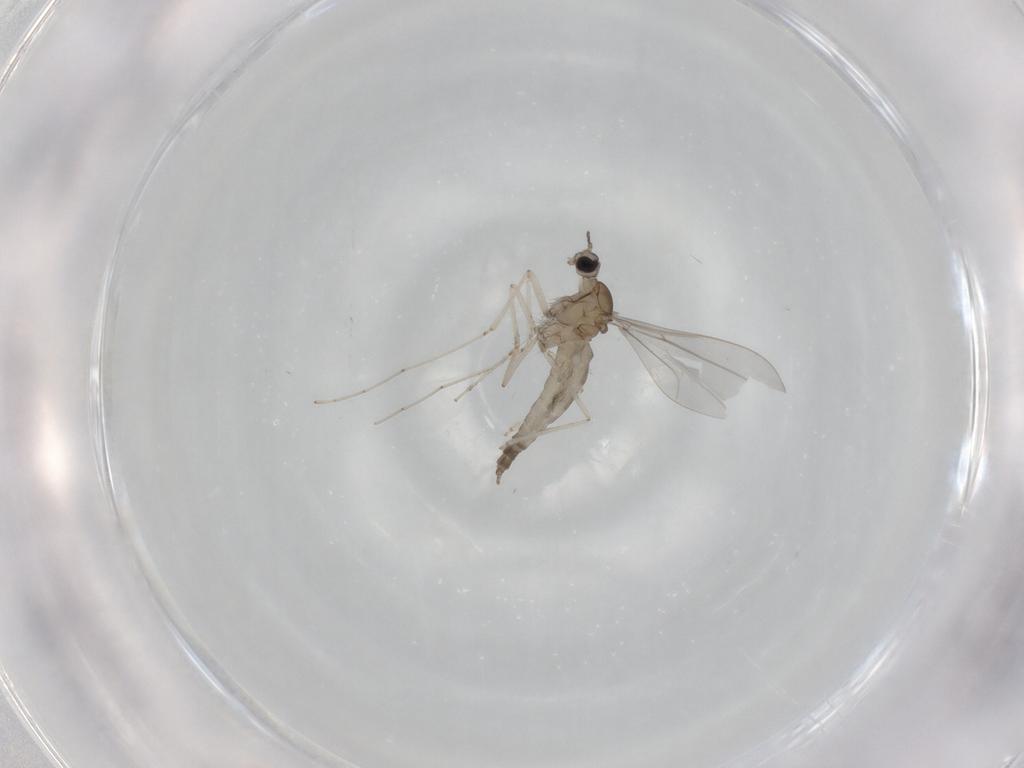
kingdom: Animalia
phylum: Arthropoda
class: Insecta
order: Diptera
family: Cecidomyiidae
